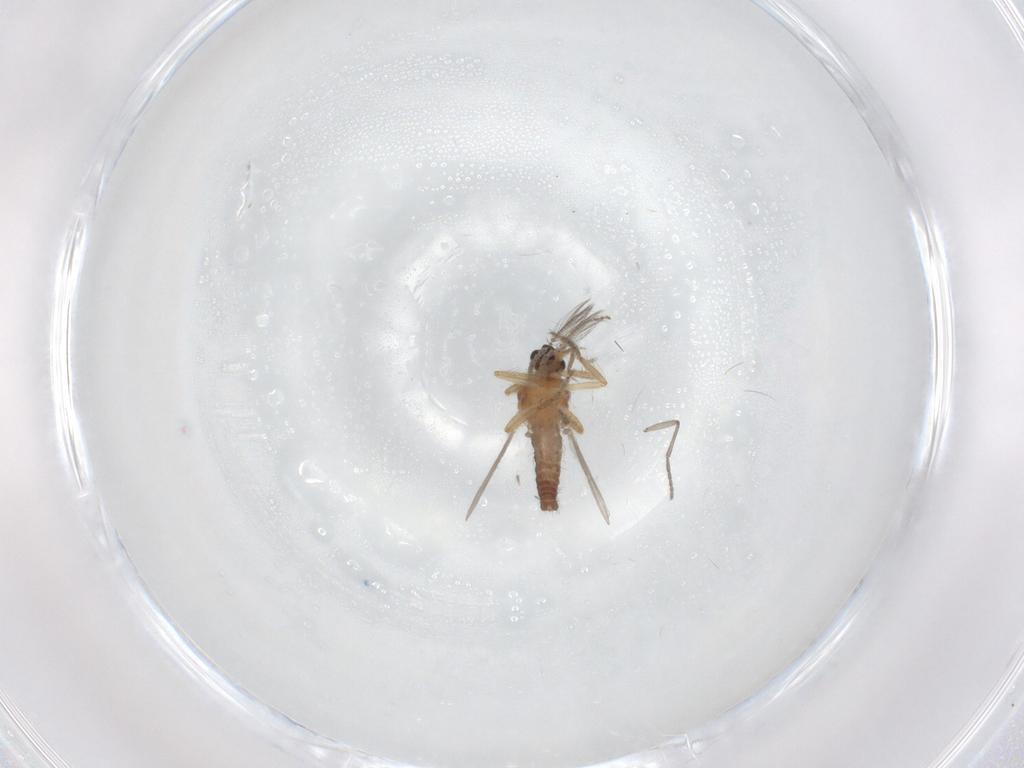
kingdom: Animalia
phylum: Arthropoda
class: Insecta
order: Diptera
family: Ceratopogonidae
